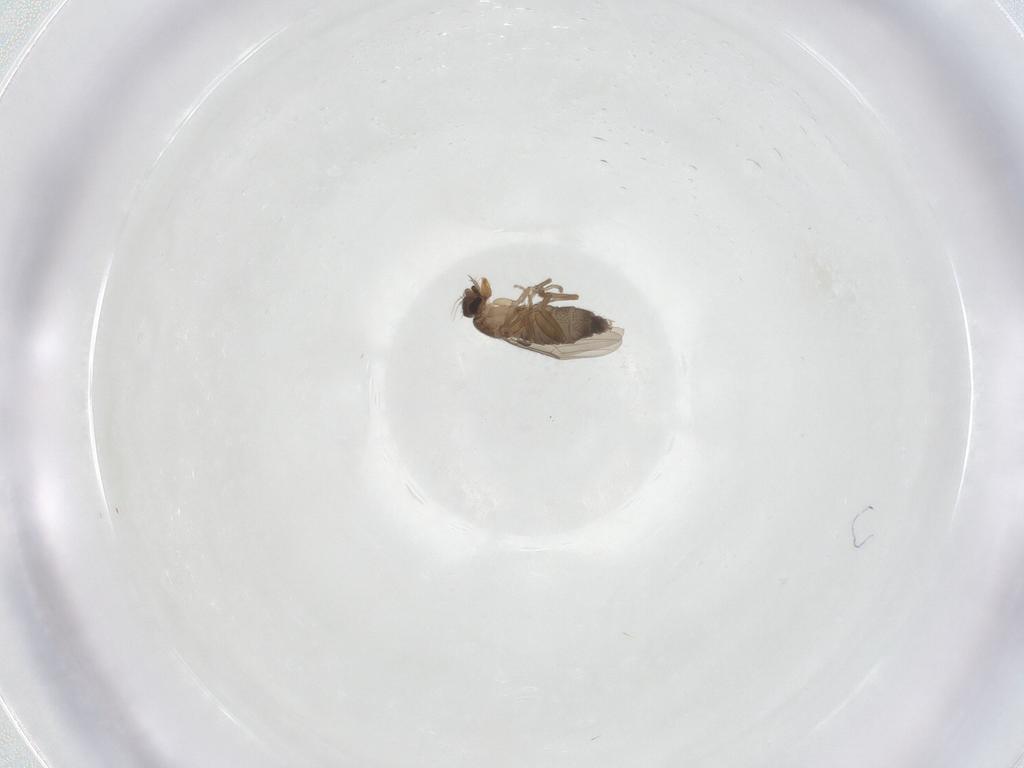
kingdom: Animalia
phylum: Arthropoda
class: Insecta
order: Diptera
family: Phoridae
